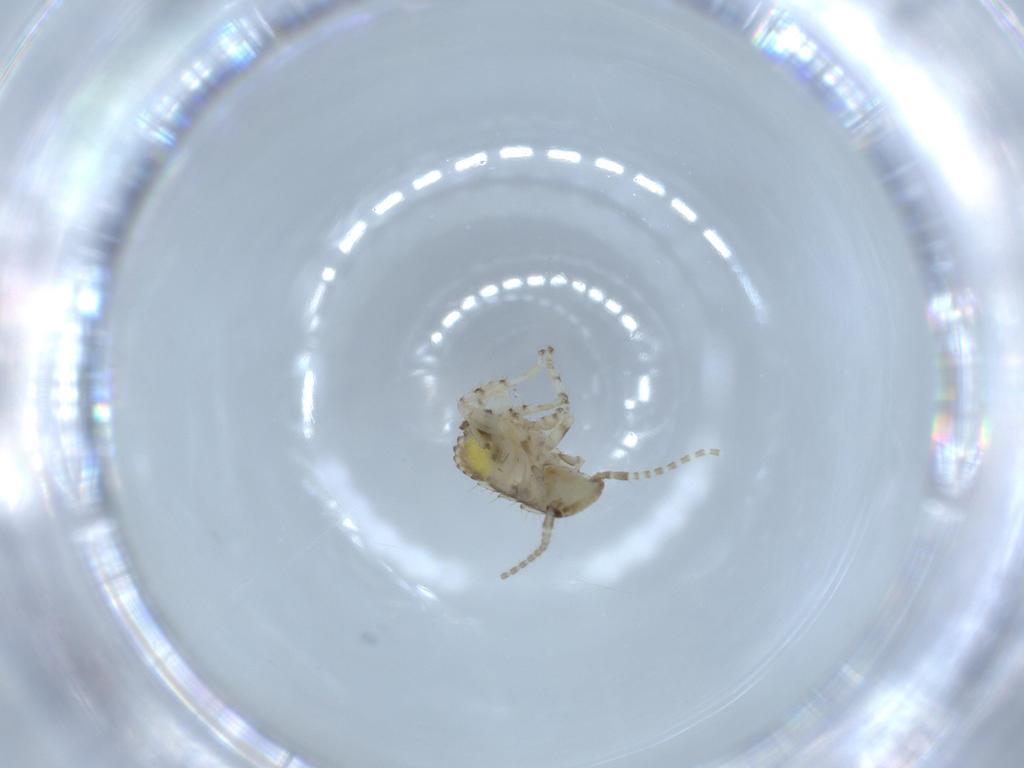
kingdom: Animalia
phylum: Arthropoda
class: Insecta
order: Blattodea
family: Ectobiidae
